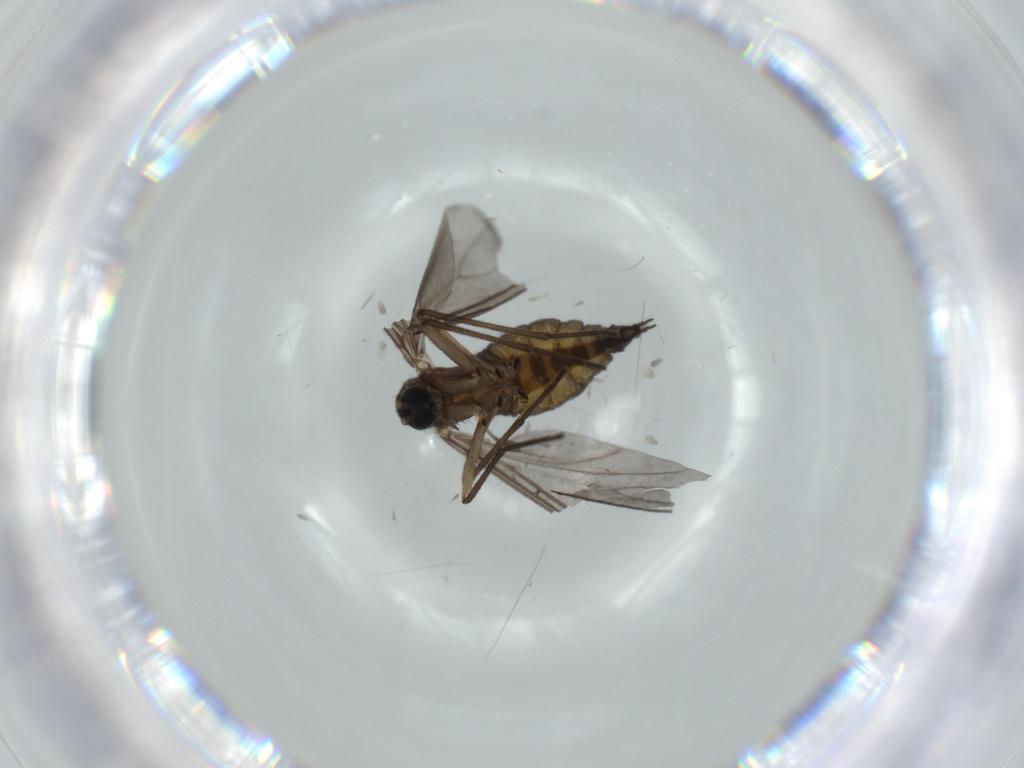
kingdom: Animalia
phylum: Arthropoda
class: Insecta
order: Diptera
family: Sciaridae
